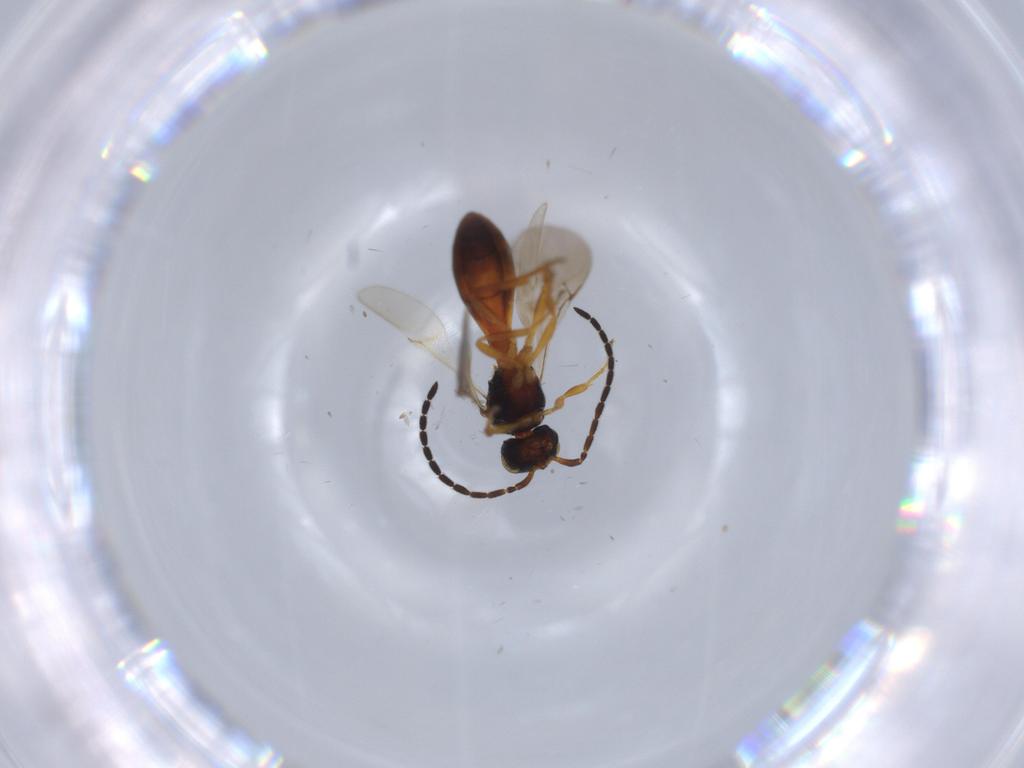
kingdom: Animalia
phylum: Arthropoda
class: Insecta
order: Hymenoptera
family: Scelionidae
